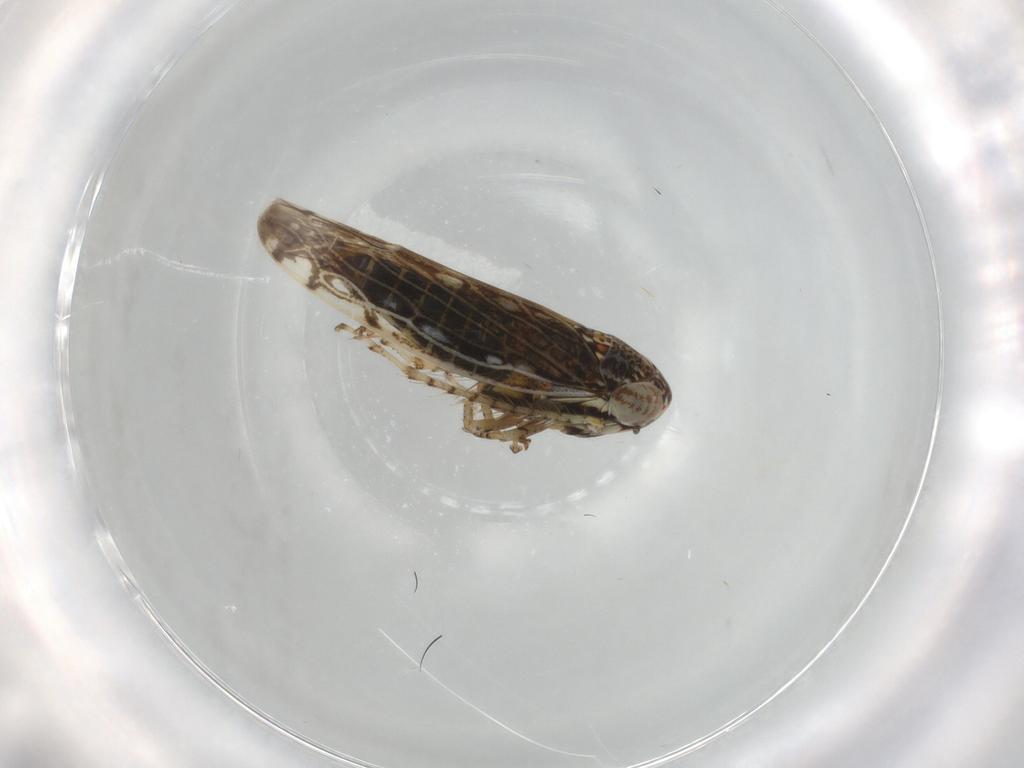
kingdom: Animalia
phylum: Arthropoda
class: Insecta
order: Hemiptera
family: Cicadellidae
